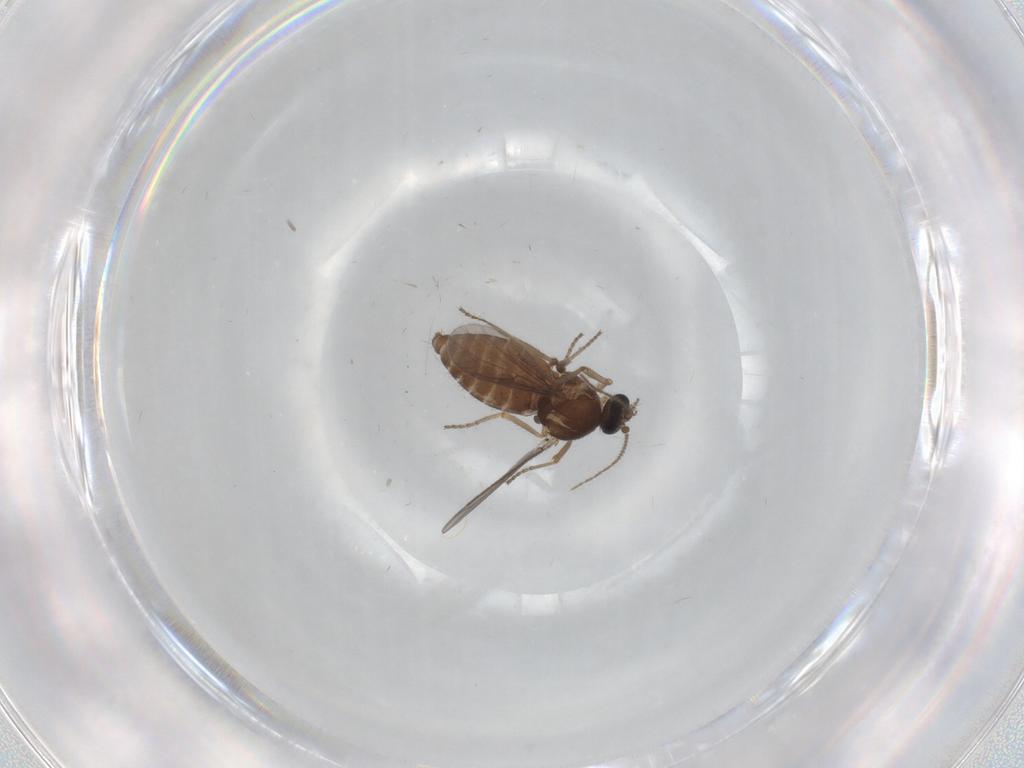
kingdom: Animalia
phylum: Arthropoda
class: Insecta
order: Diptera
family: Ceratopogonidae
